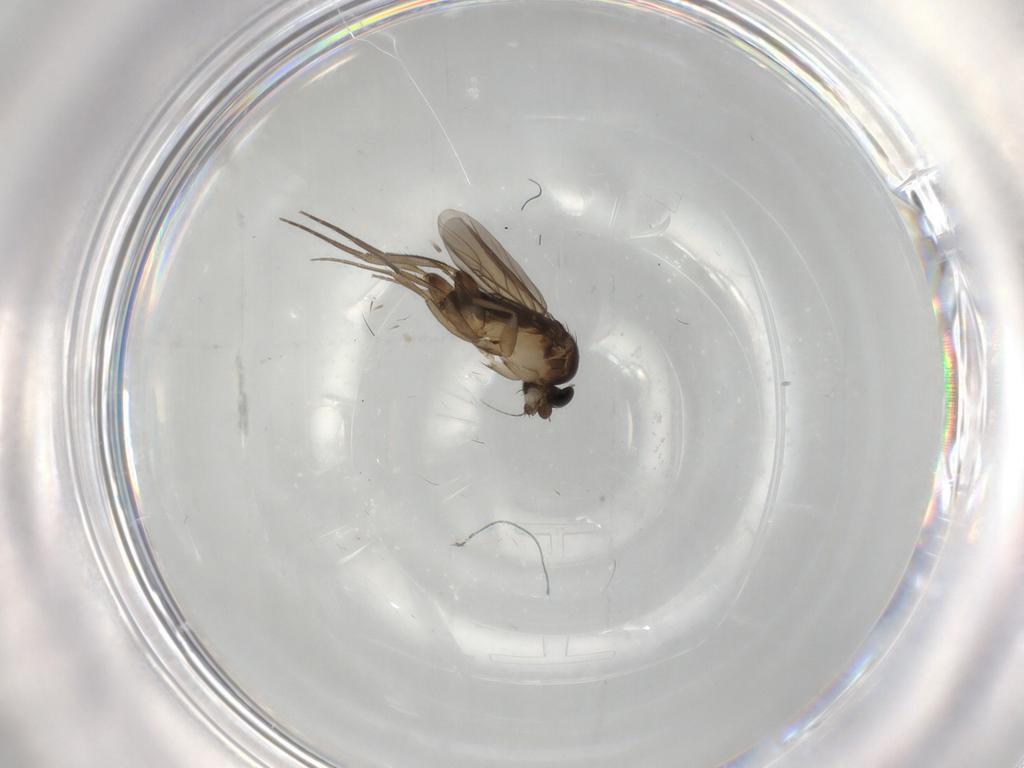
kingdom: Animalia
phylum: Arthropoda
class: Insecta
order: Diptera
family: Phoridae
